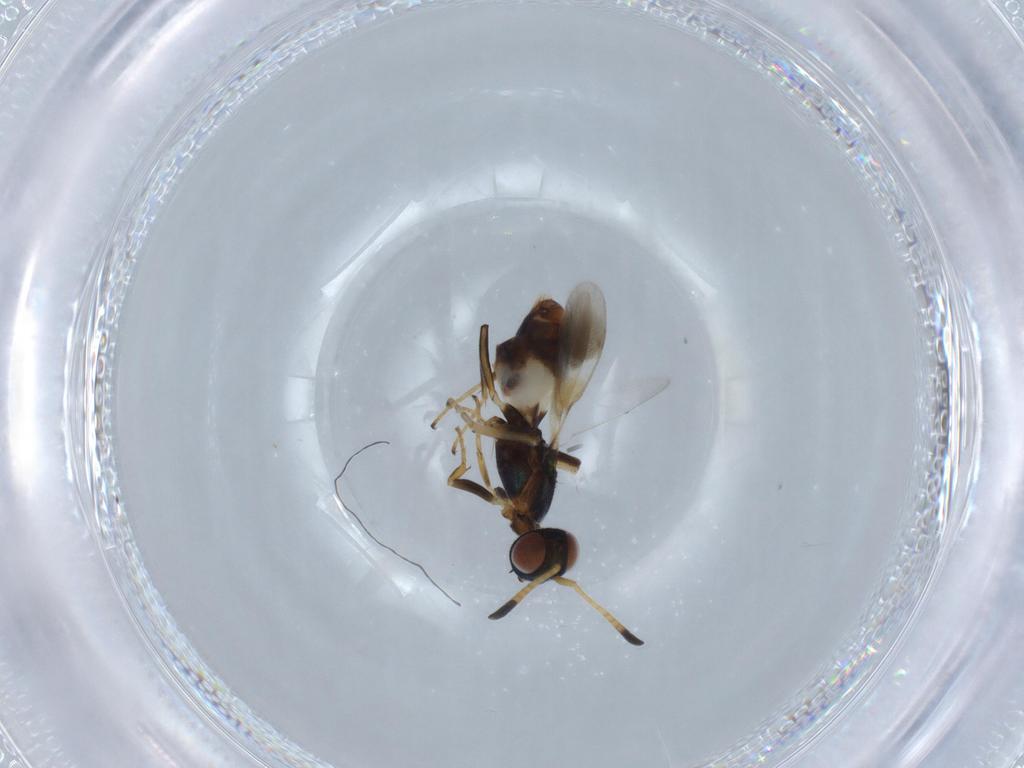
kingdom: Animalia
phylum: Arthropoda
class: Insecta
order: Hymenoptera
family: Eupelmidae
